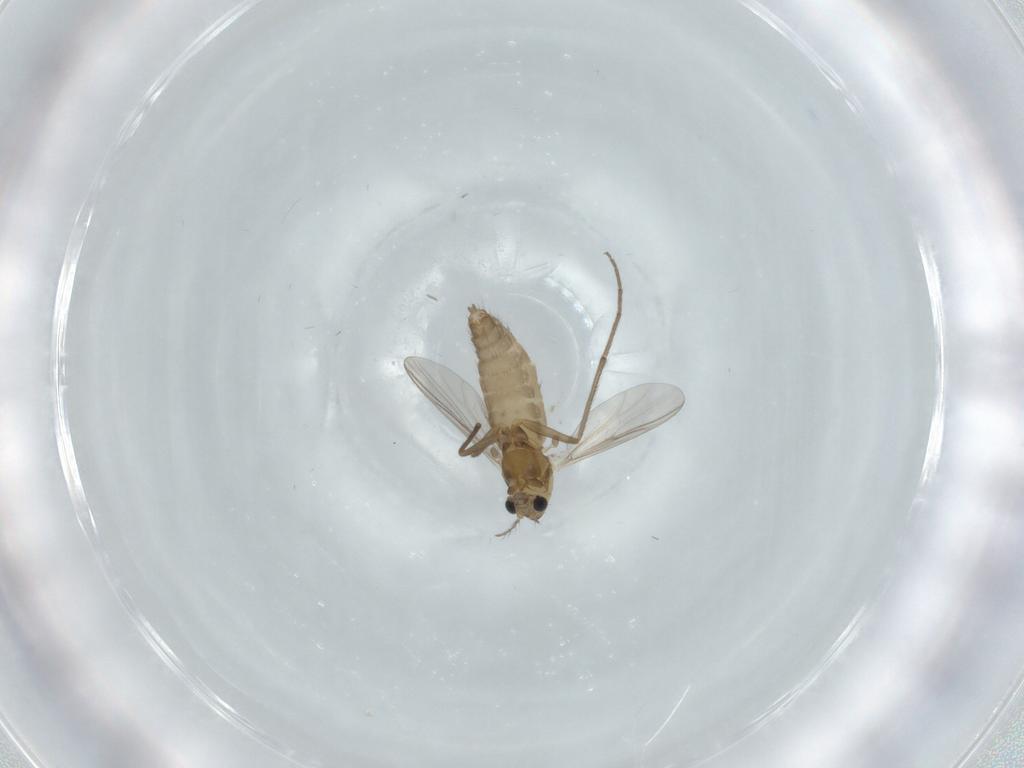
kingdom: Animalia
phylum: Arthropoda
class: Insecta
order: Diptera
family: Chironomidae
